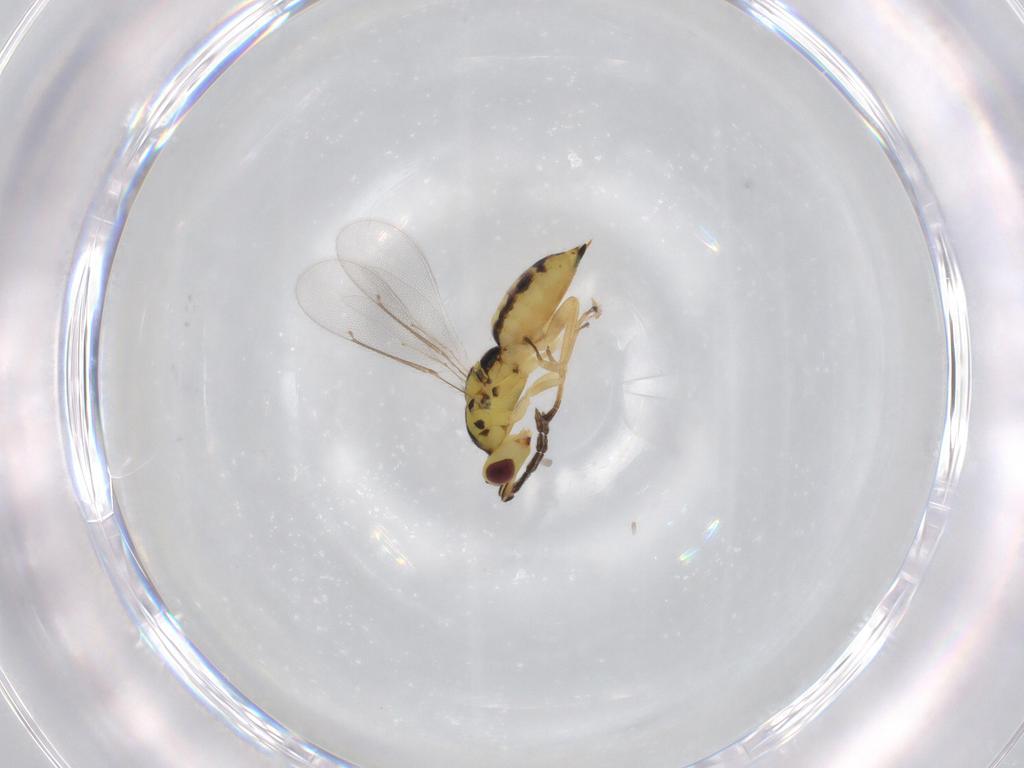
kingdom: Animalia
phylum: Arthropoda
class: Insecta
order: Hymenoptera
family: Eulophidae
